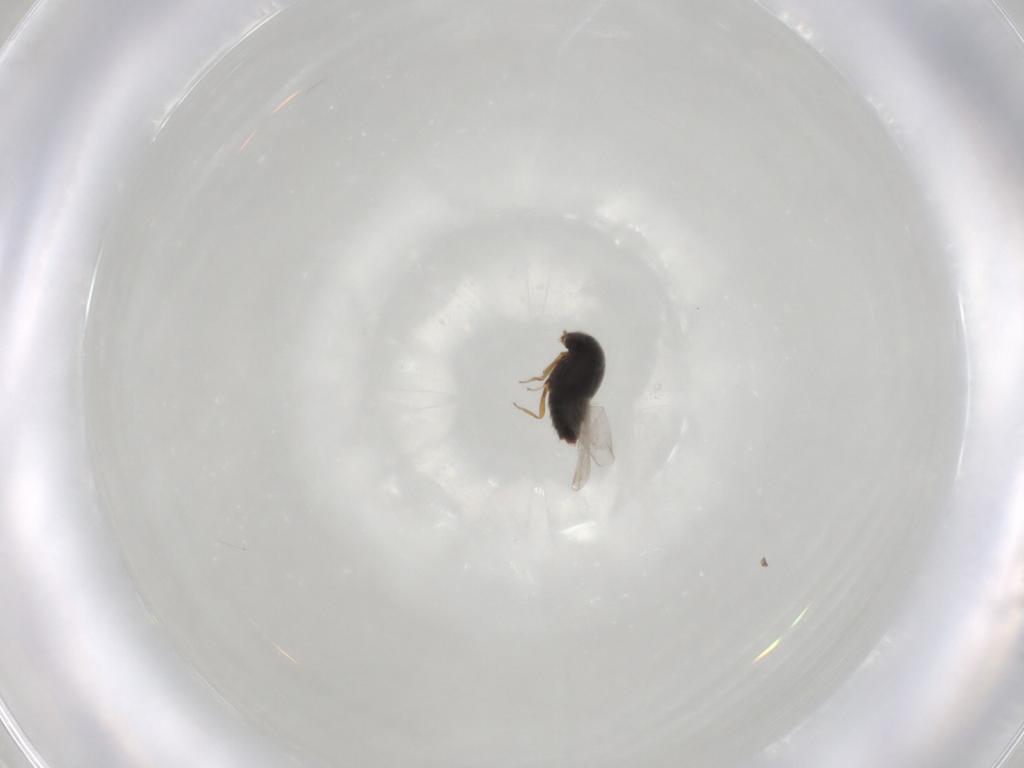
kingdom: Animalia
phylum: Arthropoda
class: Insecta
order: Coleoptera
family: Staphylinidae
